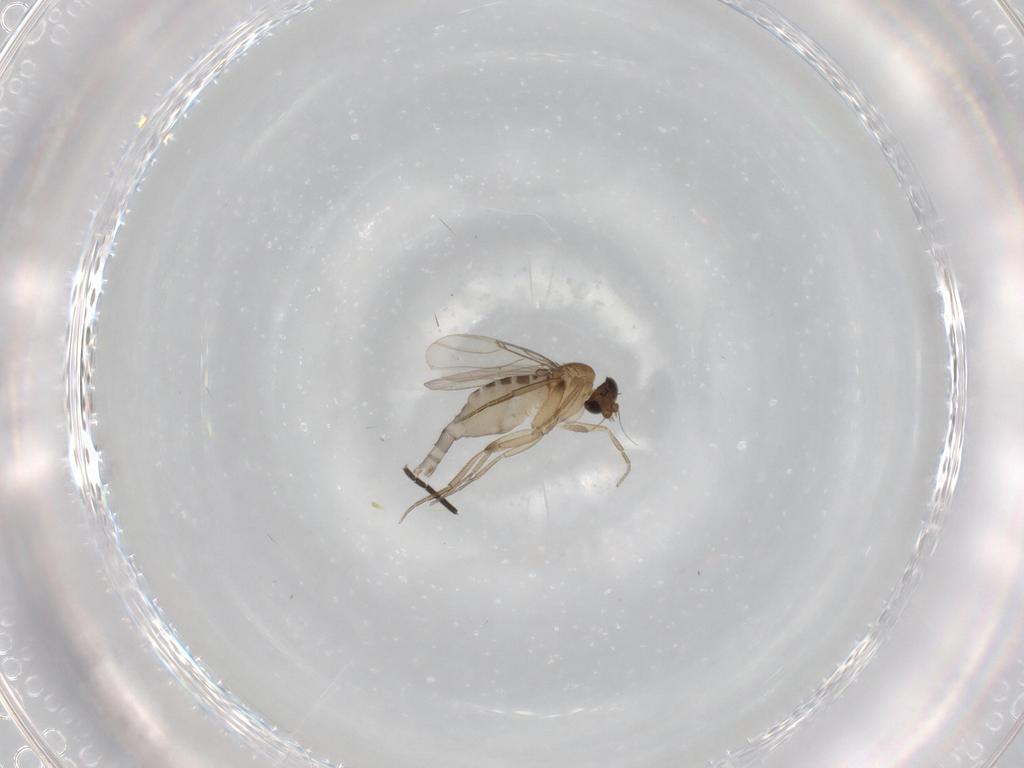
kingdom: Animalia
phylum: Arthropoda
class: Insecta
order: Diptera
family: Phoridae
